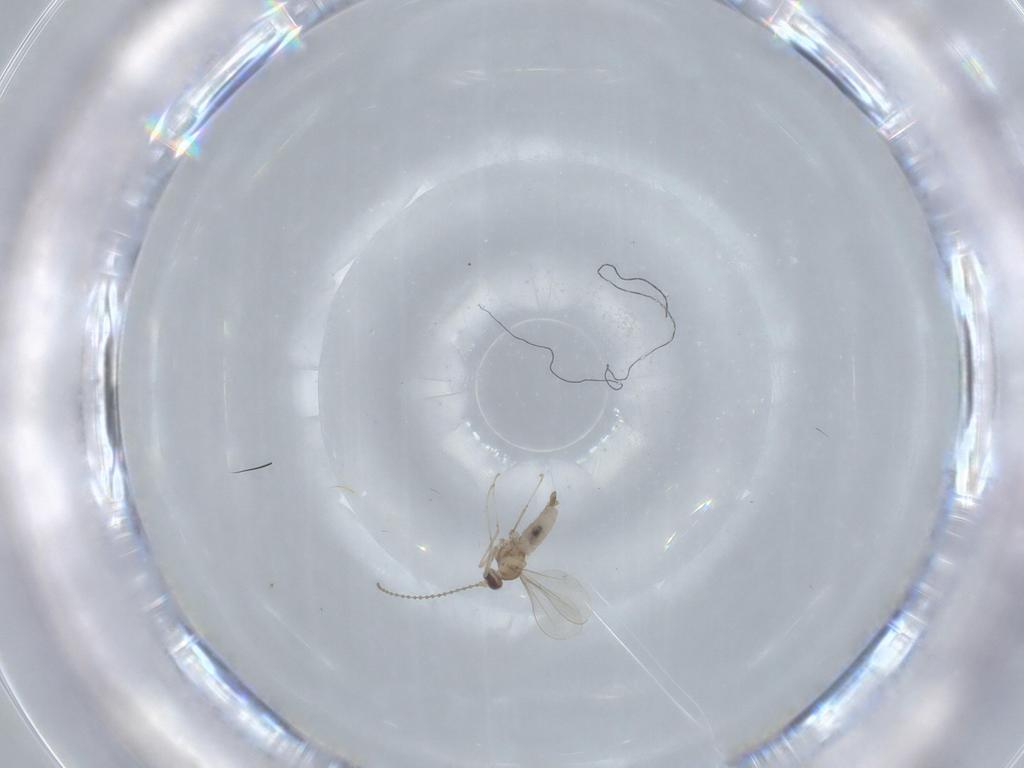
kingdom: Animalia
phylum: Arthropoda
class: Insecta
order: Diptera
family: Cecidomyiidae
